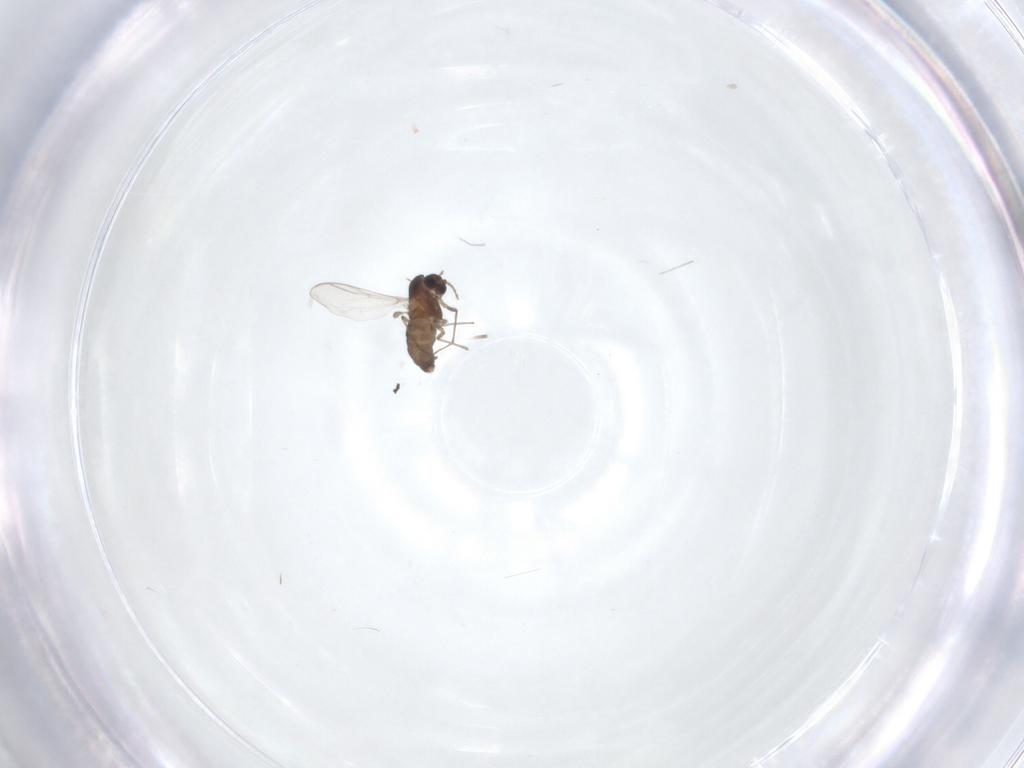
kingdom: Animalia
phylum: Arthropoda
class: Insecta
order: Diptera
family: Chironomidae
